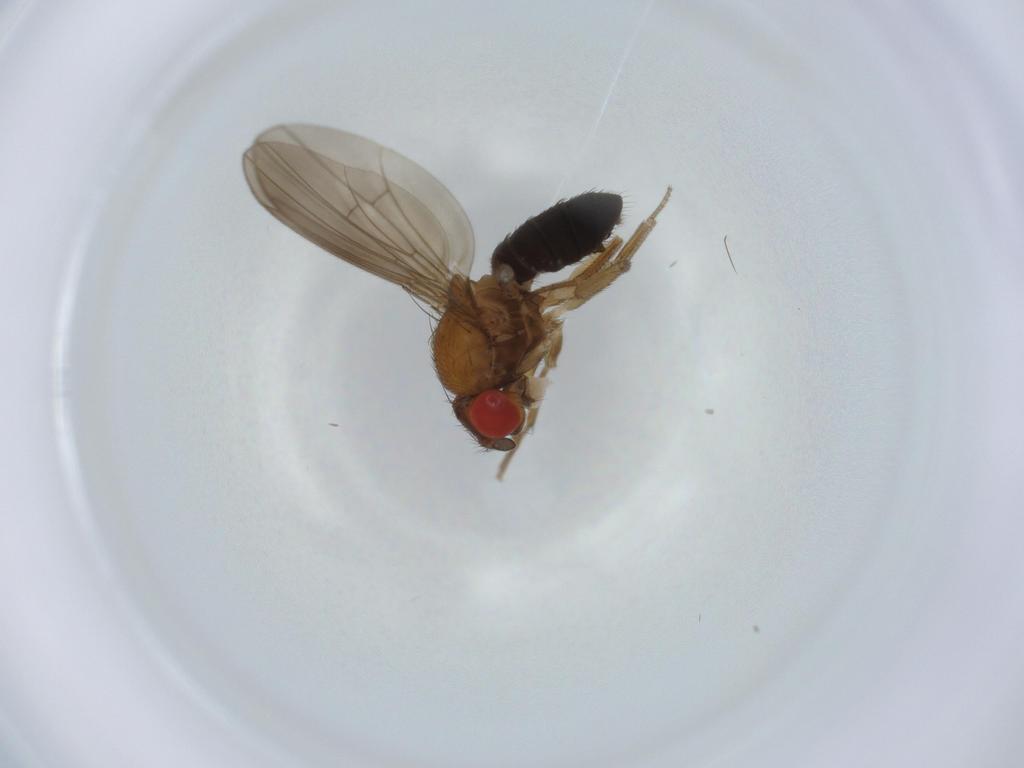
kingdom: Animalia
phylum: Arthropoda
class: Insecta
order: Diptera
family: Drosophilidae
